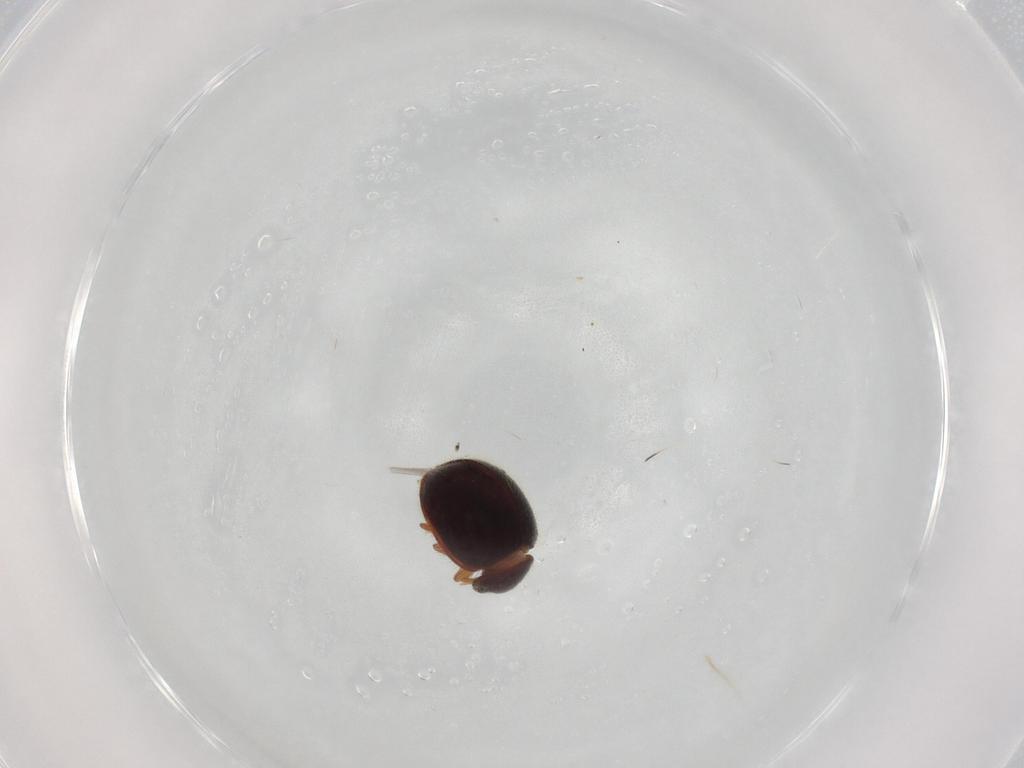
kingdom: Animalia
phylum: Arthropoda
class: Insecta
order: Coleoptera
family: Coccinellidae
